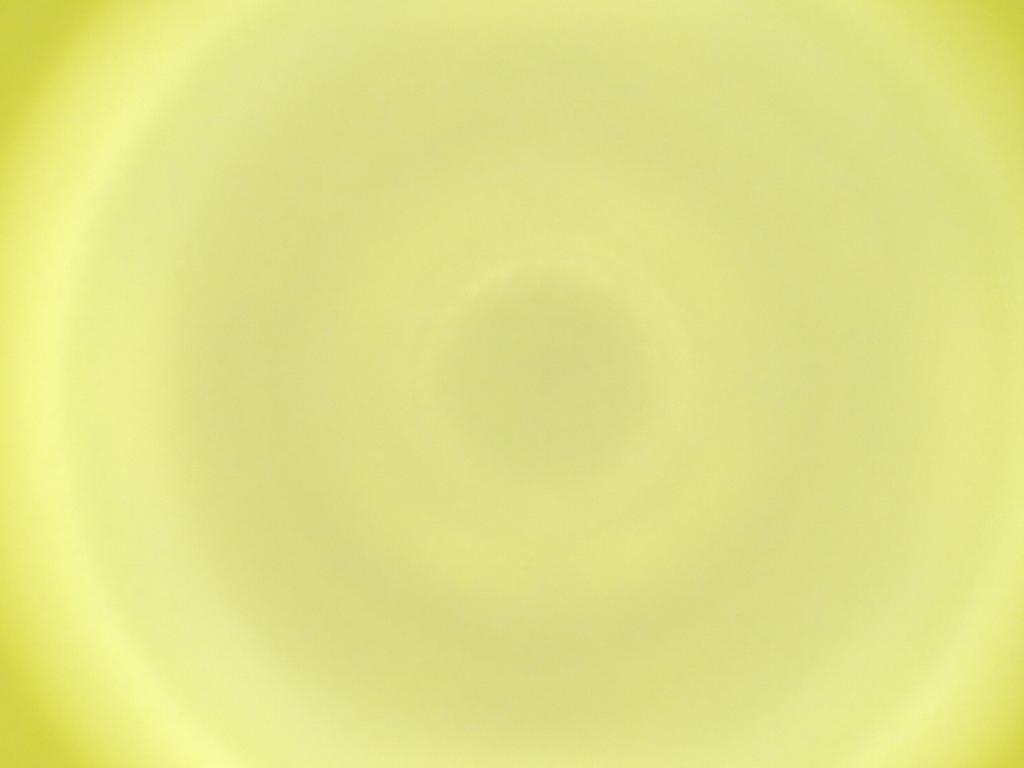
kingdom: Animalia
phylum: Arthropoda
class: Insecta
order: Diptera
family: Cecidomyiidae
